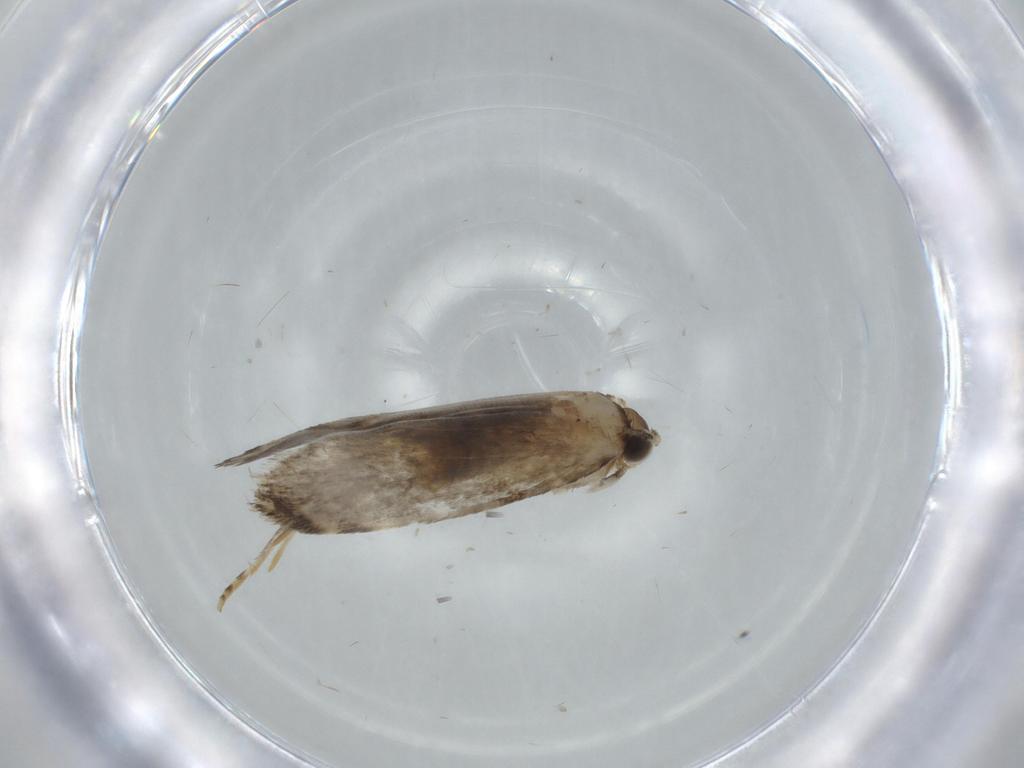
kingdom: Animalia
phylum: Arthropoda
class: Insecta
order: Lepidoptera
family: Tineidae
